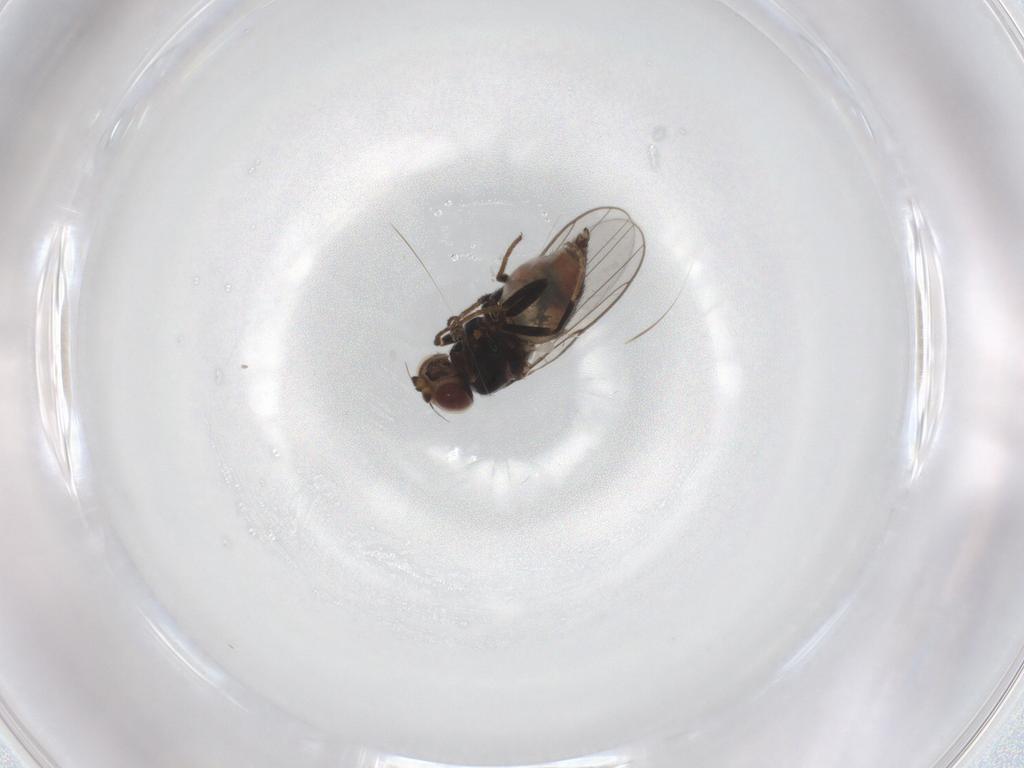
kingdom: Animalia
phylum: Arthropoda
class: Insecta
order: Diptera
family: Chloropidae
